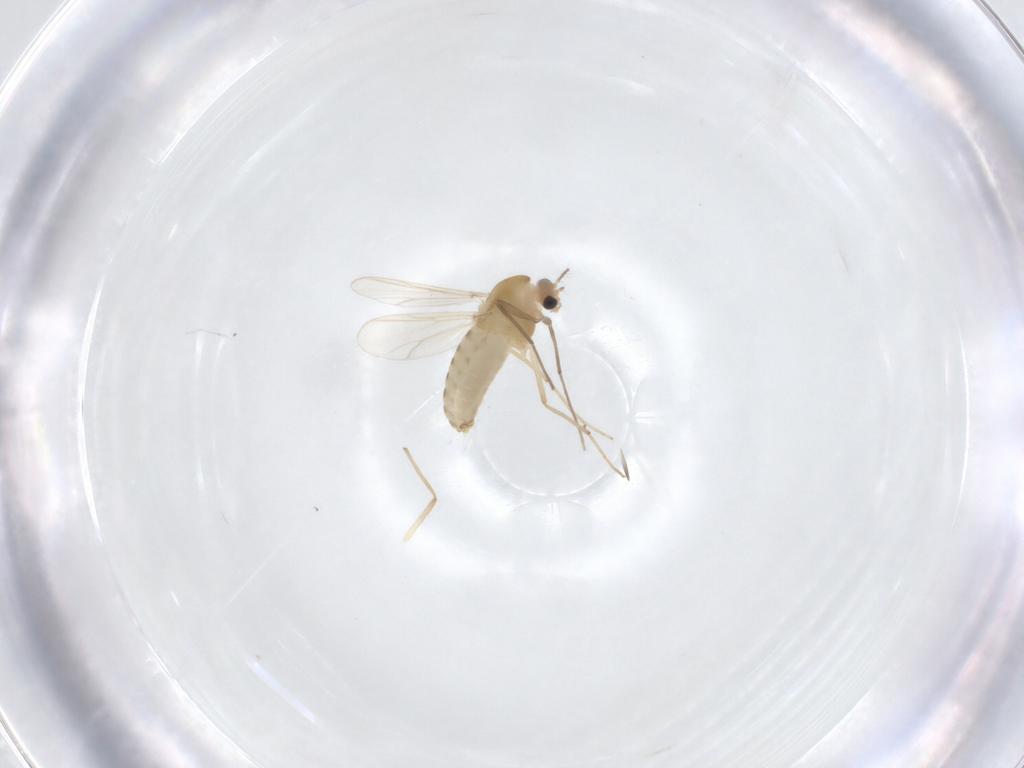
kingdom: Animalia
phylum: Arthropoda
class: Insecta
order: Diptera
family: Chironomidae
